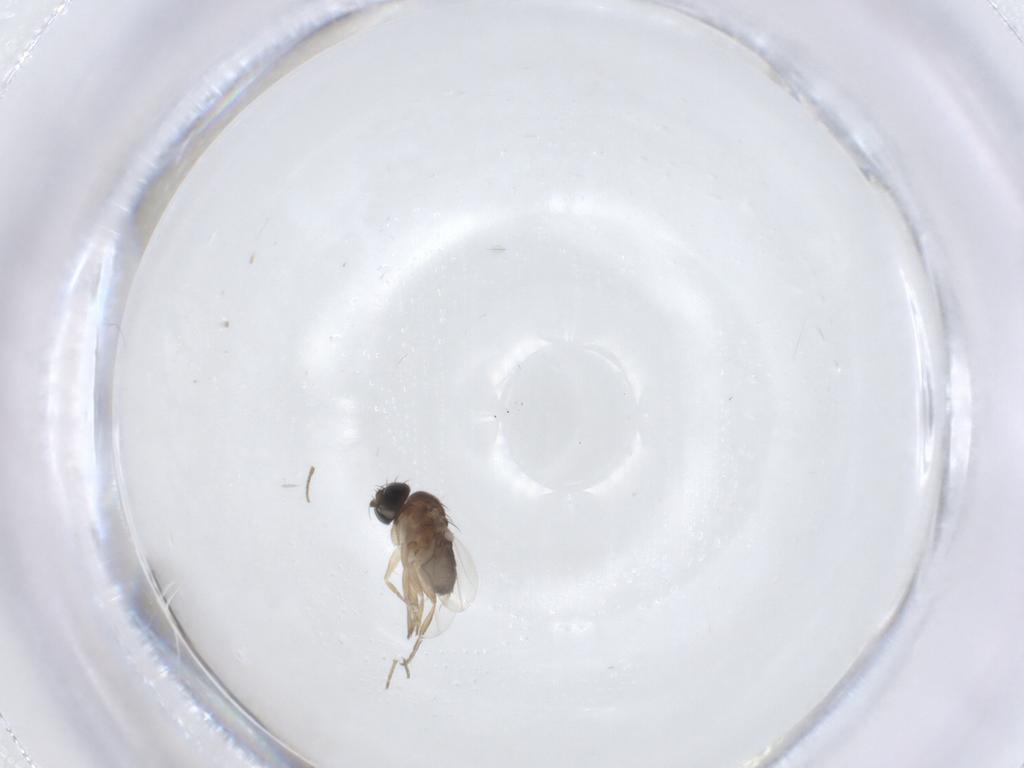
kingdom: Animalia
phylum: Arthropoda
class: Insecta
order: Diptera
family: Phoridae
